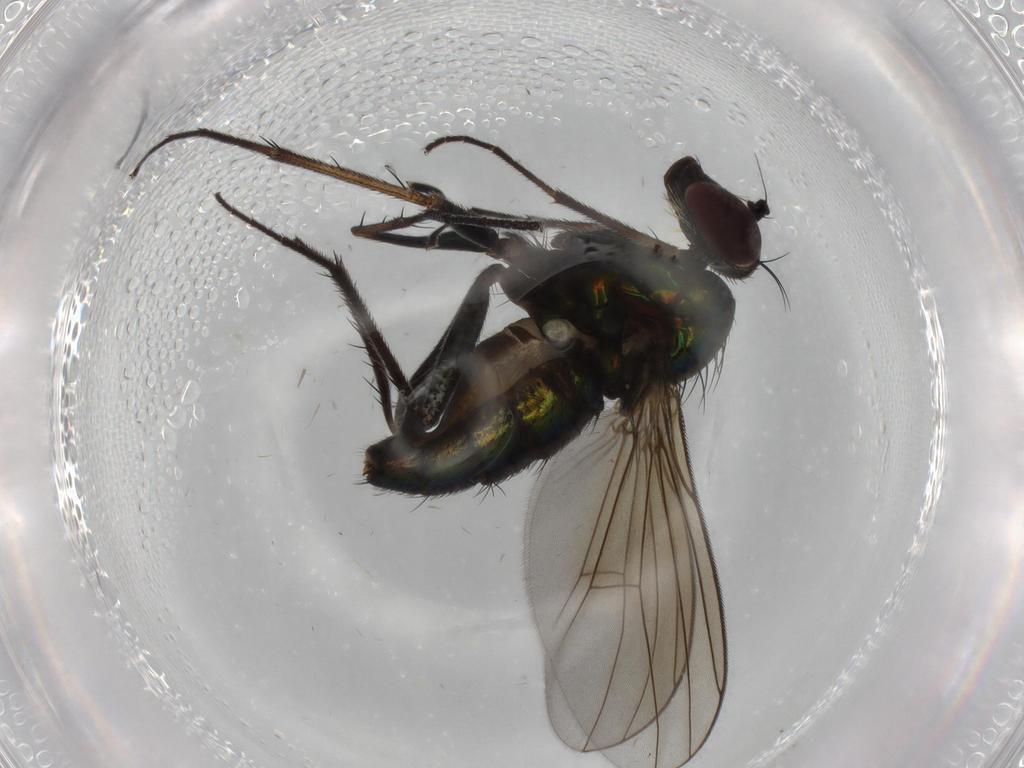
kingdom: Animalia
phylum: Arthropoda
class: Insecta
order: Diptera
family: Dolichopodidae
